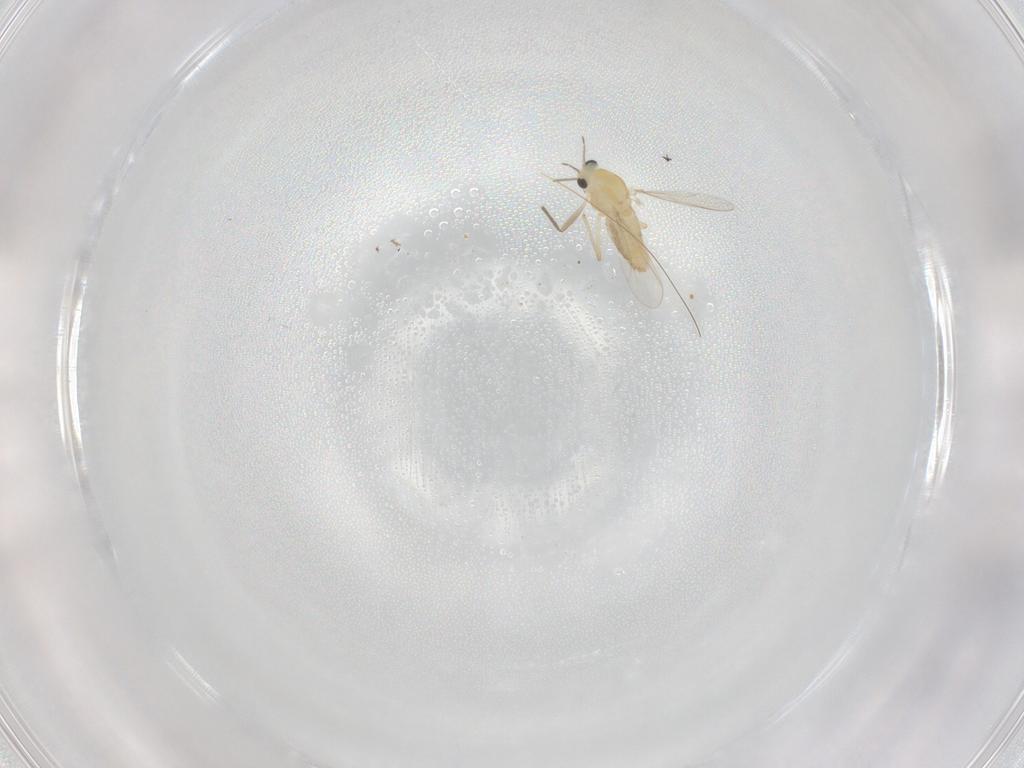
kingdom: Animalia
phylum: Arthropoda
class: Insecta
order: Diptera
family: Chironomidae
